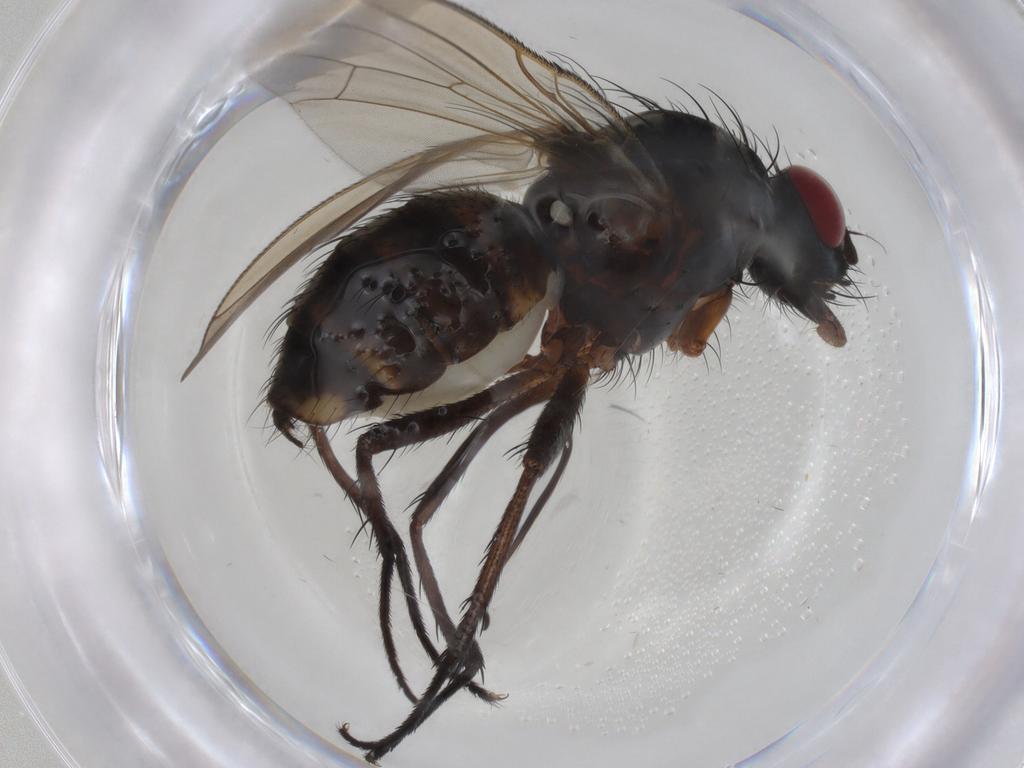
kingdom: Animalia
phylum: Arthropoda
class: Insecta
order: Diptera
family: Anthomyiidae
